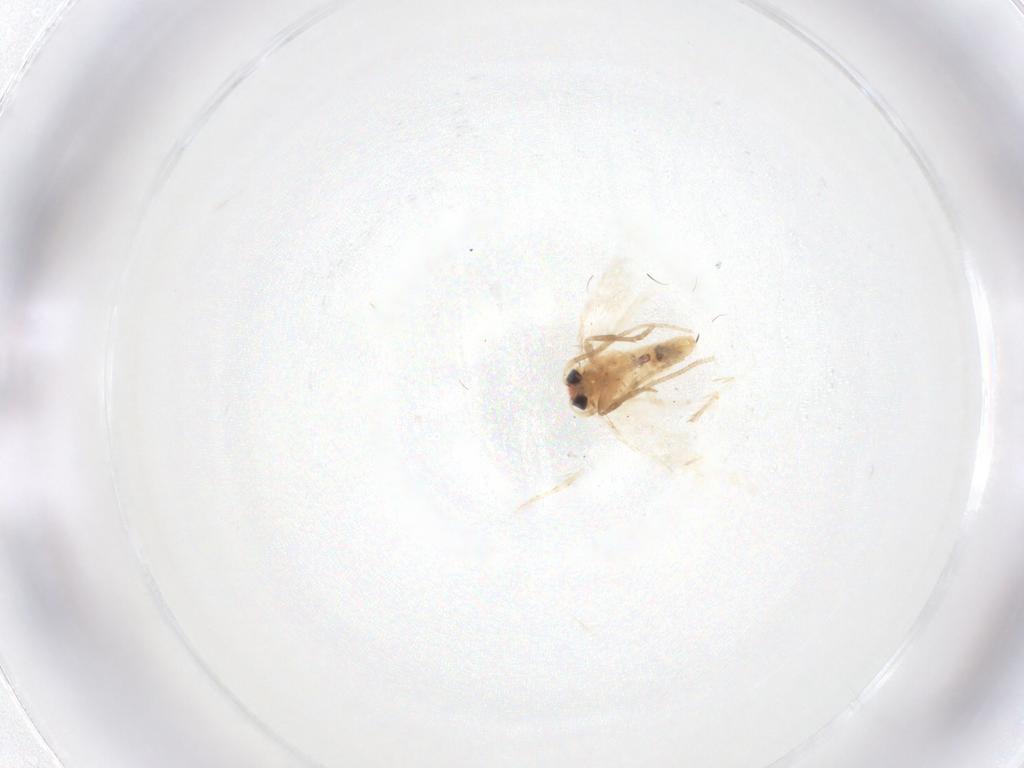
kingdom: Animalia
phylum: Arthropoda
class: Insecta
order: Lepidoptera
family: Nepticulidae
